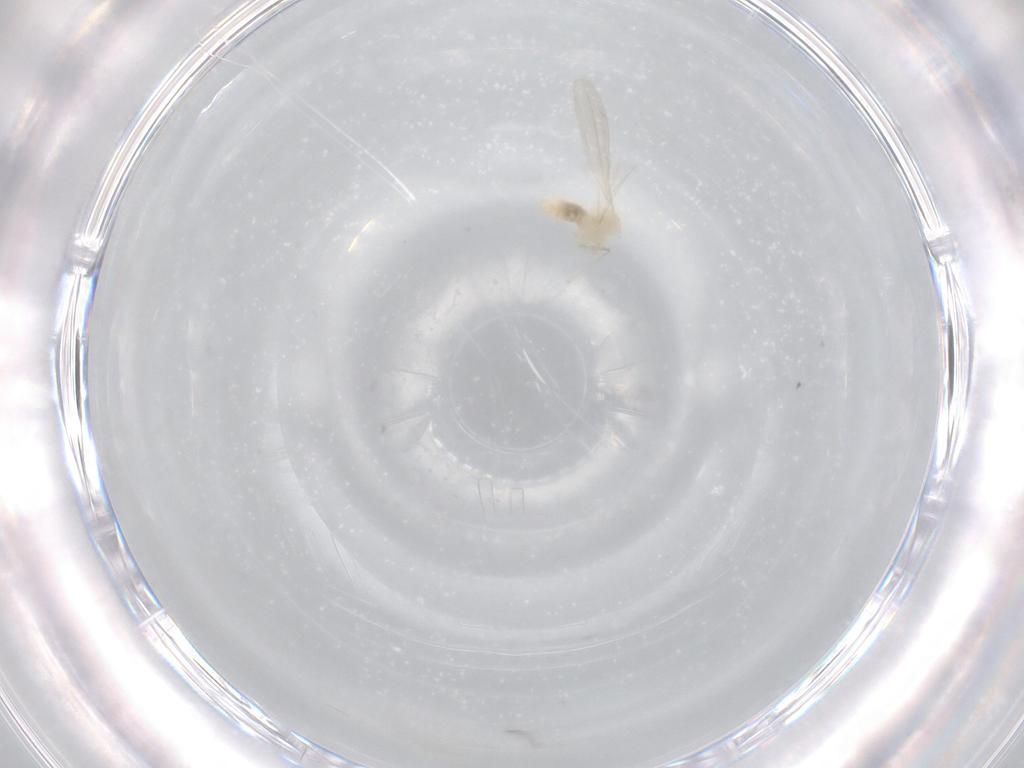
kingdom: Animalia
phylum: Arthropoda
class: Insecta
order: Diptera
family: Cecidomyiidae
